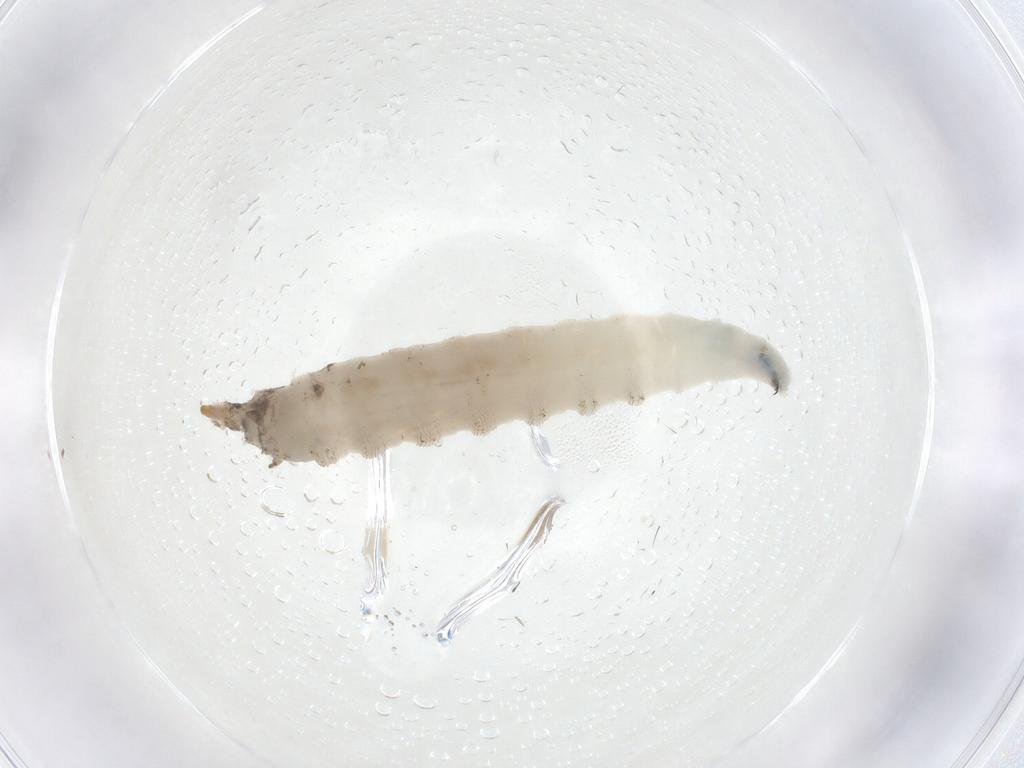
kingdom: Animalia
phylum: Arthropoda
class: Insecta
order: Diptera
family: Drosophilidae
